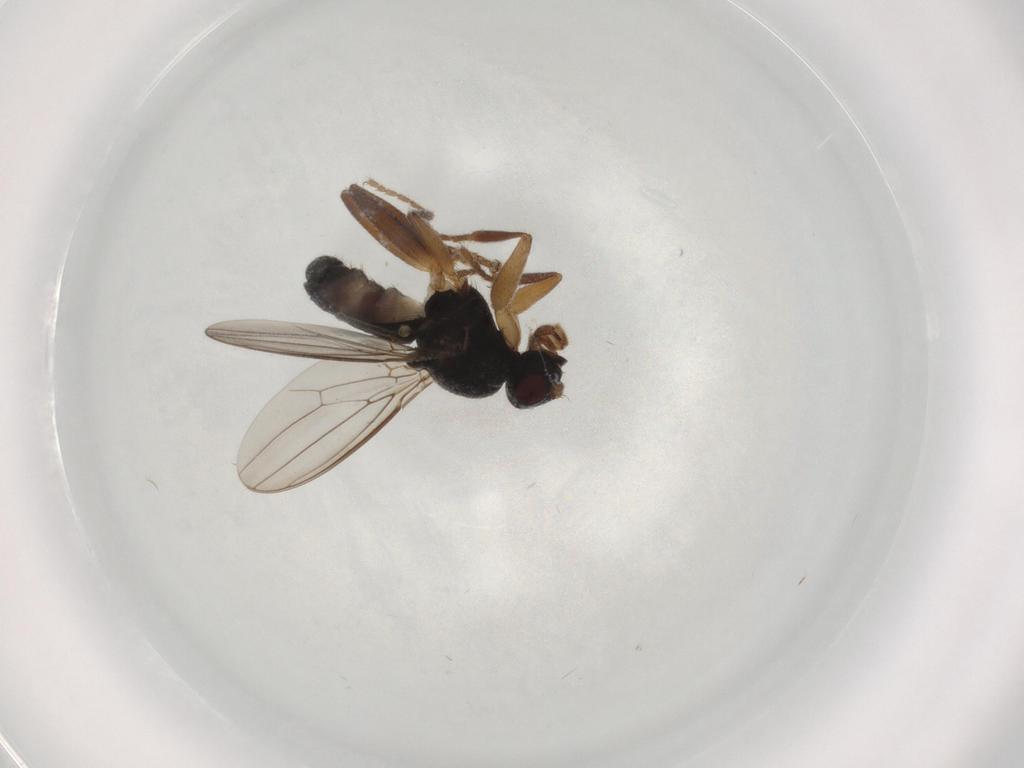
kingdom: Animalia
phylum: Arthropoda
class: Insecta
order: Diptera
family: Sphaeroceridae
